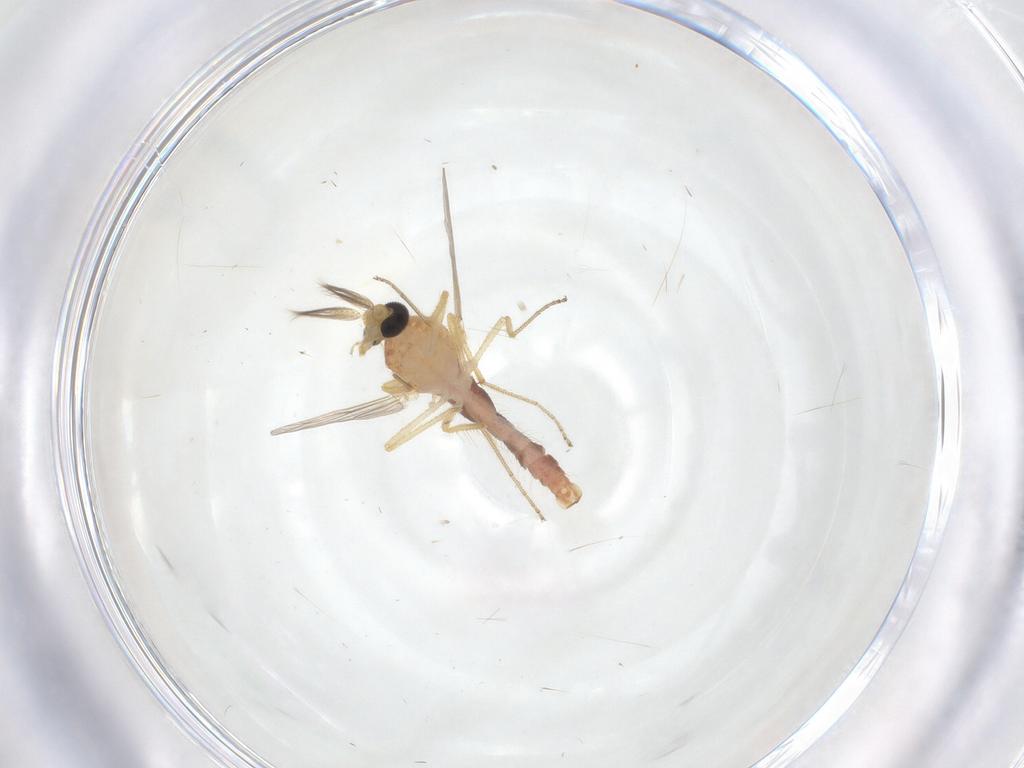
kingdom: Animalia
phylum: Arthropoda
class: Insecta
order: Diptera
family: Ceratopogonidae
